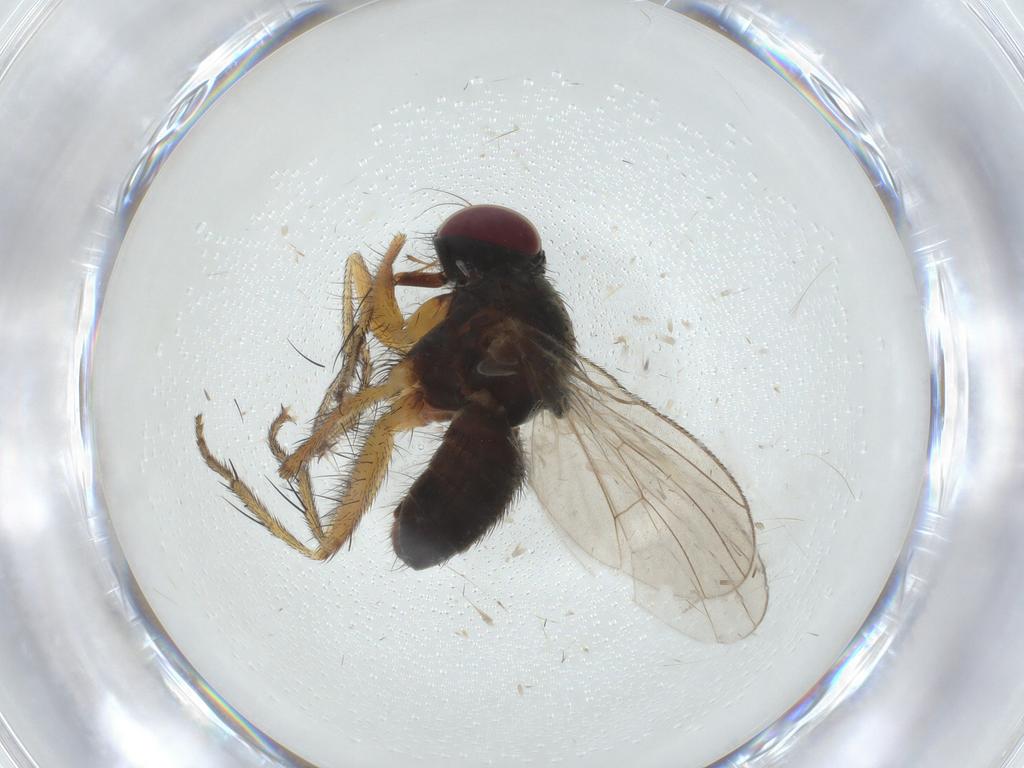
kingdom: Animalia
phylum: Arthropoda
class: Insecta
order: Diptera
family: Muscidae
